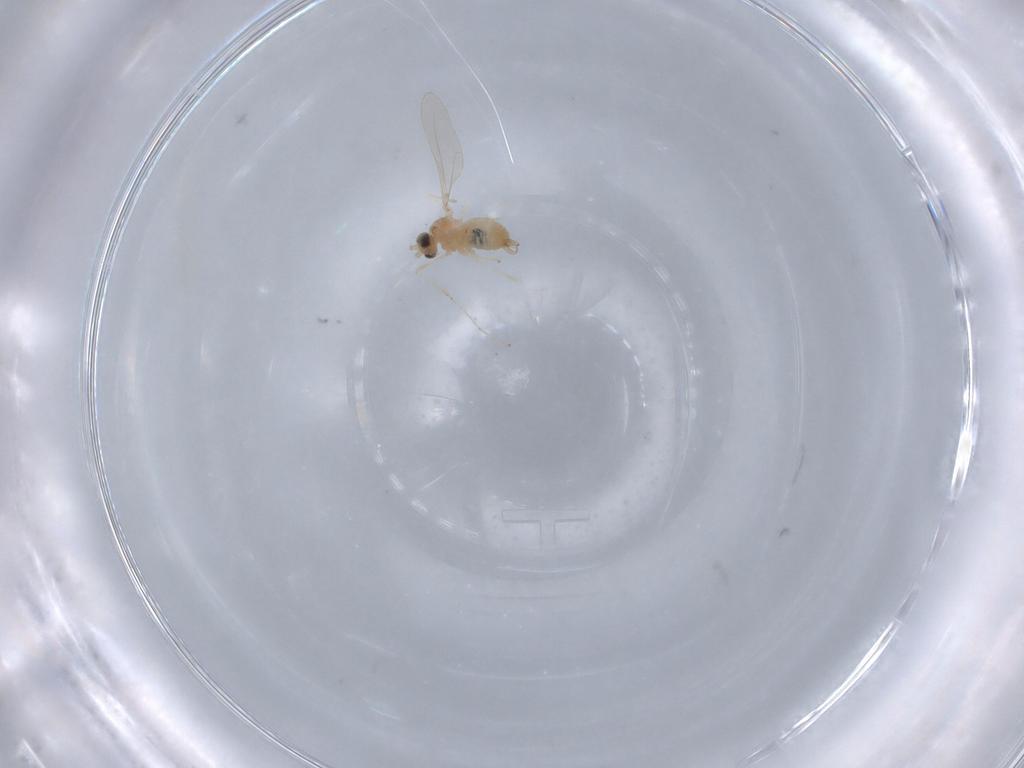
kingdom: Animalia
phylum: Arthropoda
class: Insecta
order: Diptera
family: Cecidomyiidae
